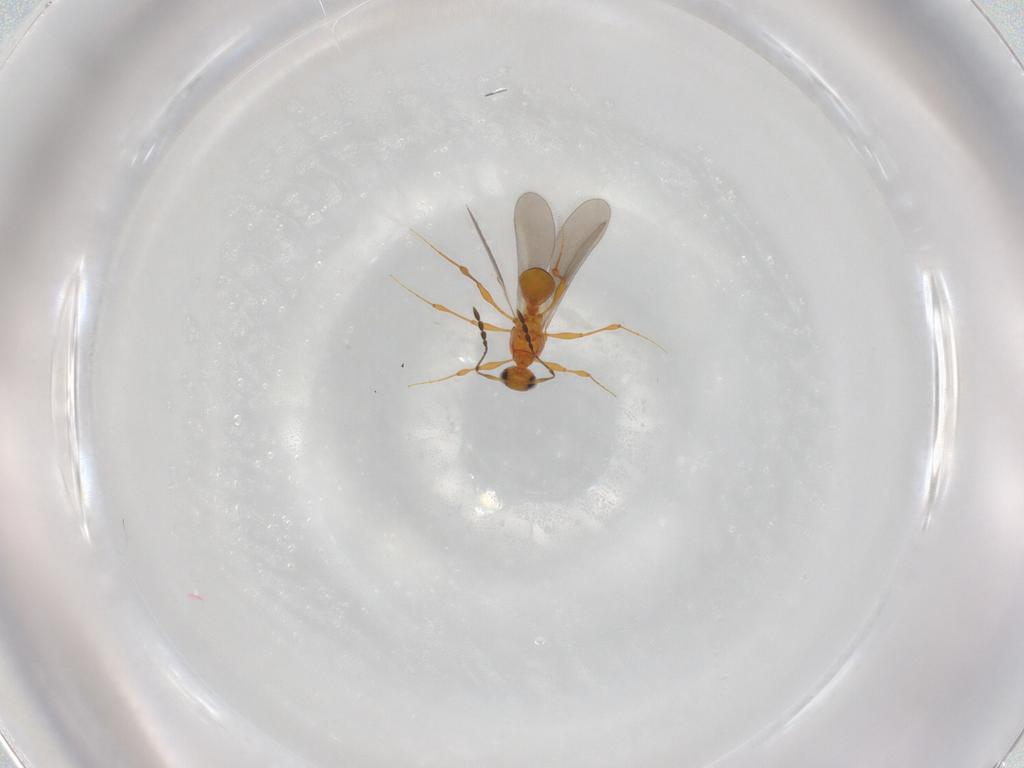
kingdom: Animalia
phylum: Arthropoda
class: Insecta
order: Hymenoptera
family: Platygastridae
